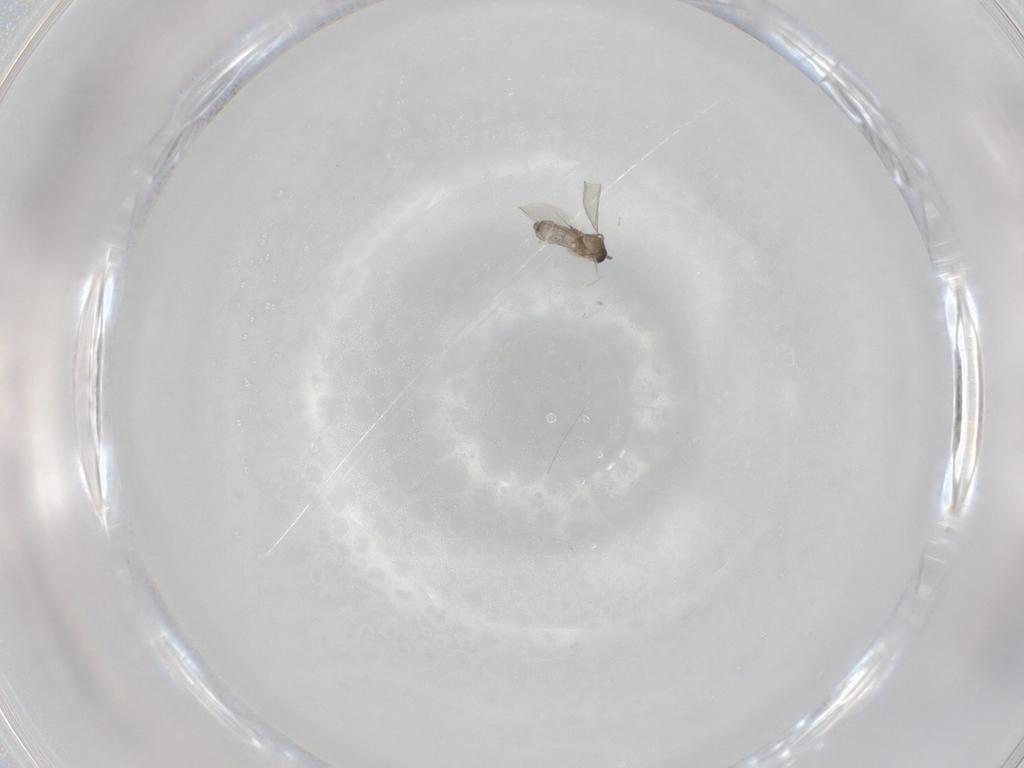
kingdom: Animalia
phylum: Arthropoda
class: Insecta
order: Diptera
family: Cecidomyiidae
